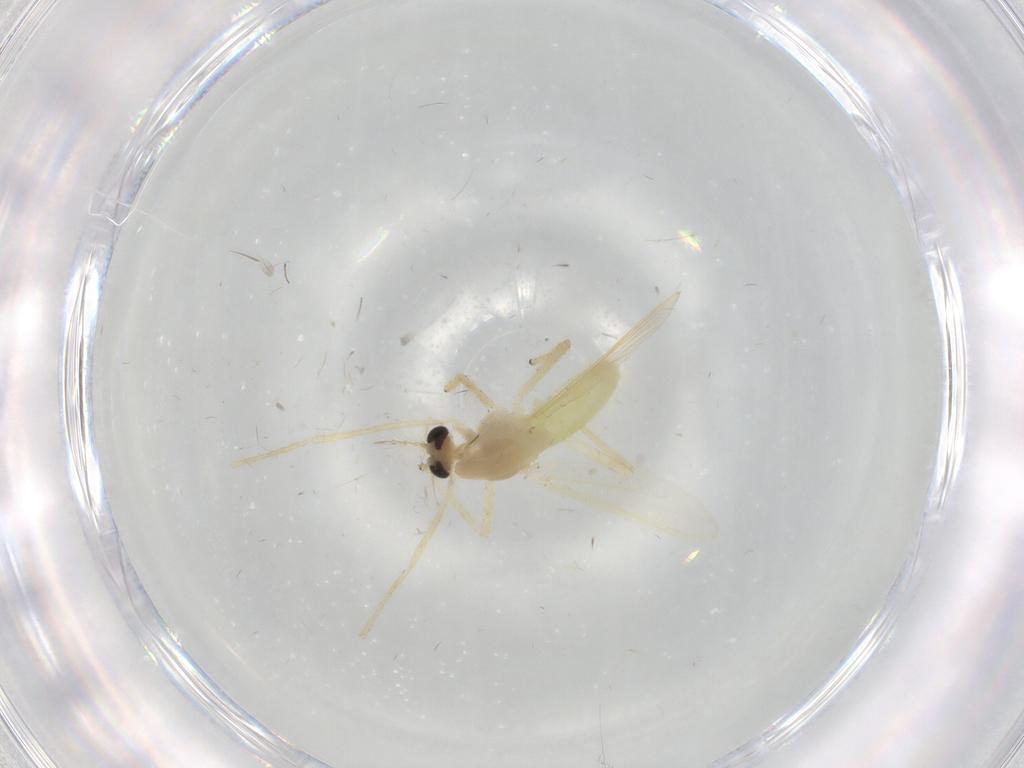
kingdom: Animalia
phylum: Arthropoda
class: Insecta
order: Diptera
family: Chironomidae
